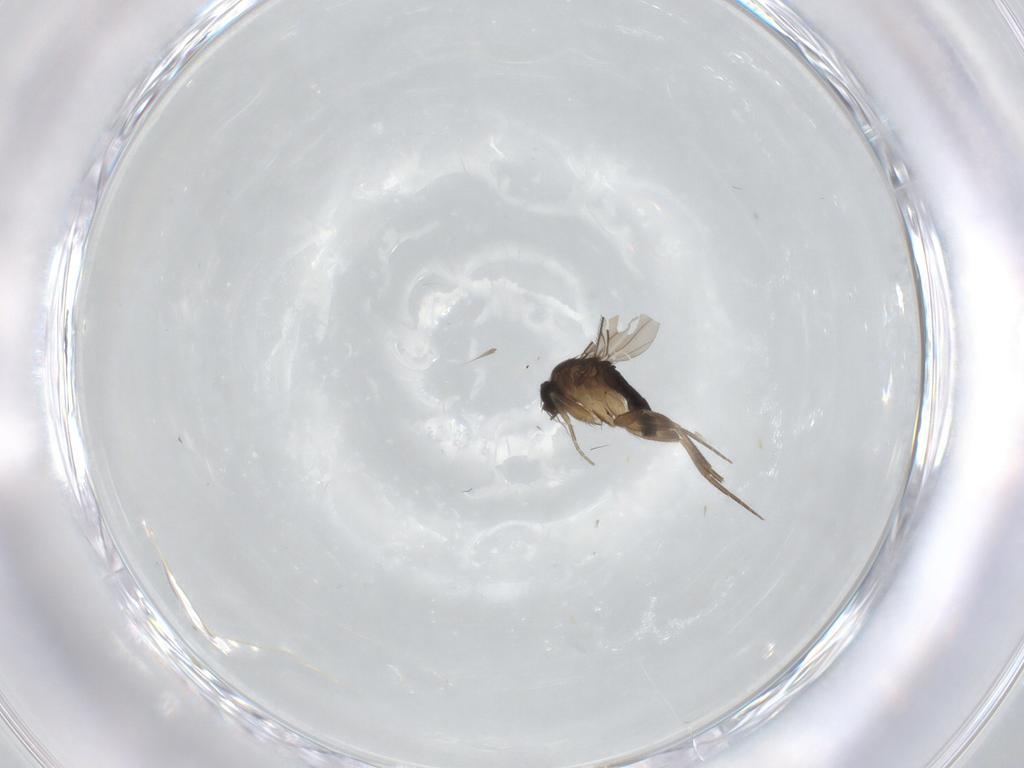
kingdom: Animalia
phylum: Arthropoda
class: Insecta
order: Diptera
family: Phoridae
